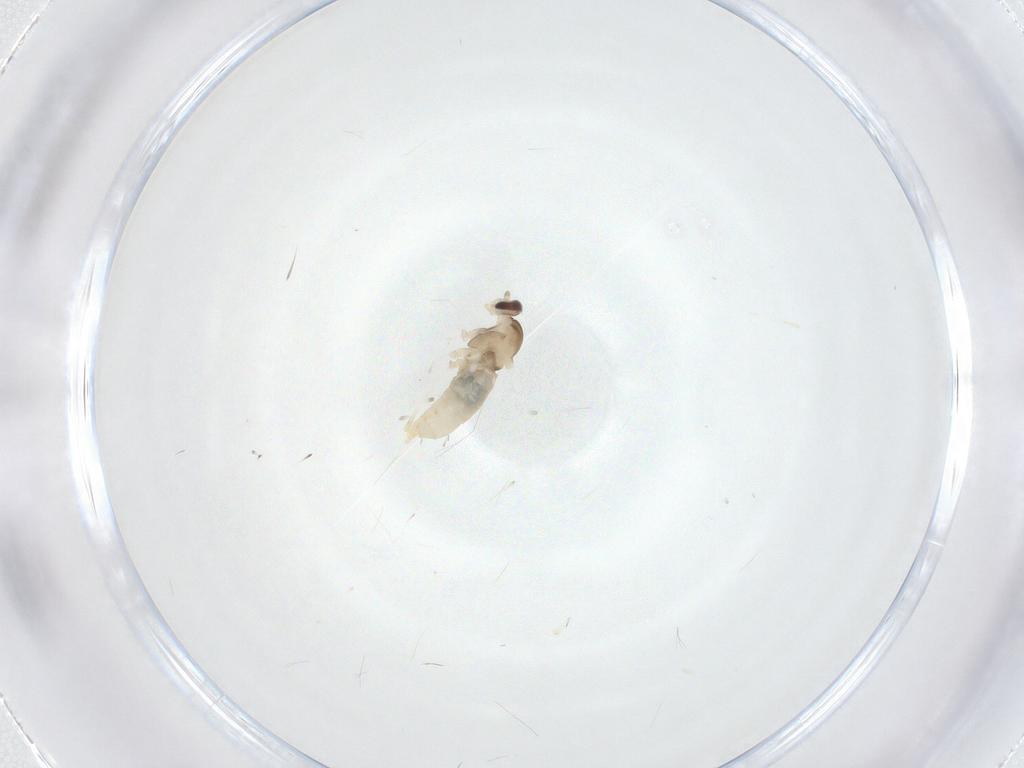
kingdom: Animalia
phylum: Arthropoda
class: Insecta
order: Diptera
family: Cecidomyiidae
